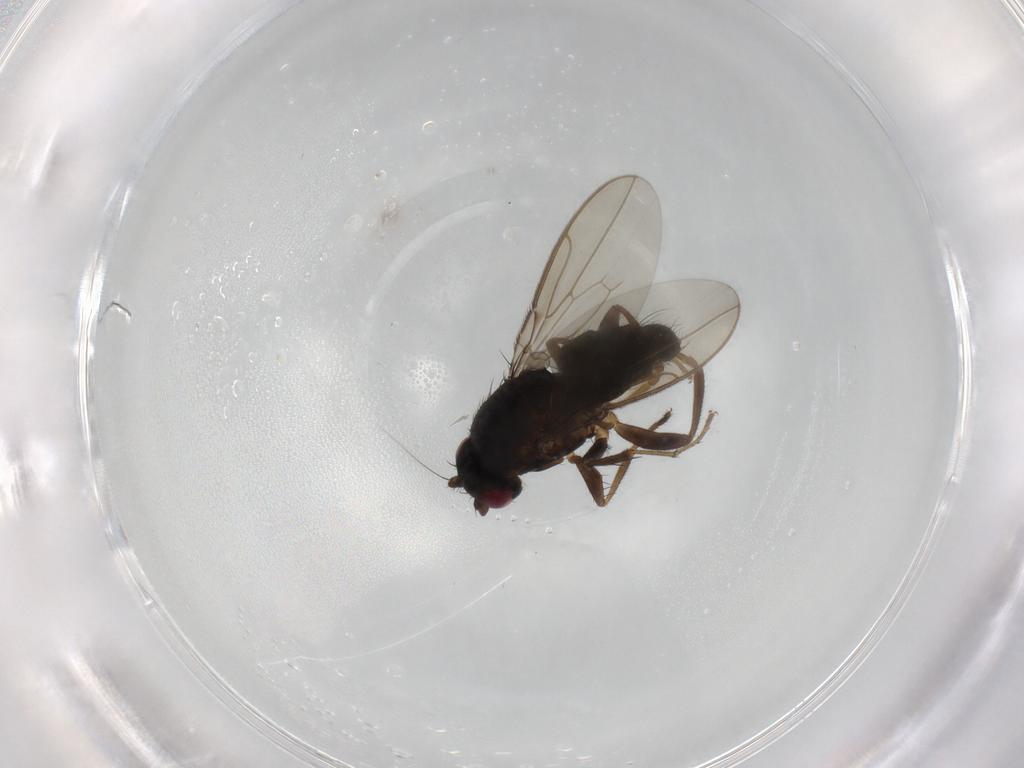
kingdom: Animalia
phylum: Arthropoda
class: Insecta
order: Diptera
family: Sphaeroceridae
